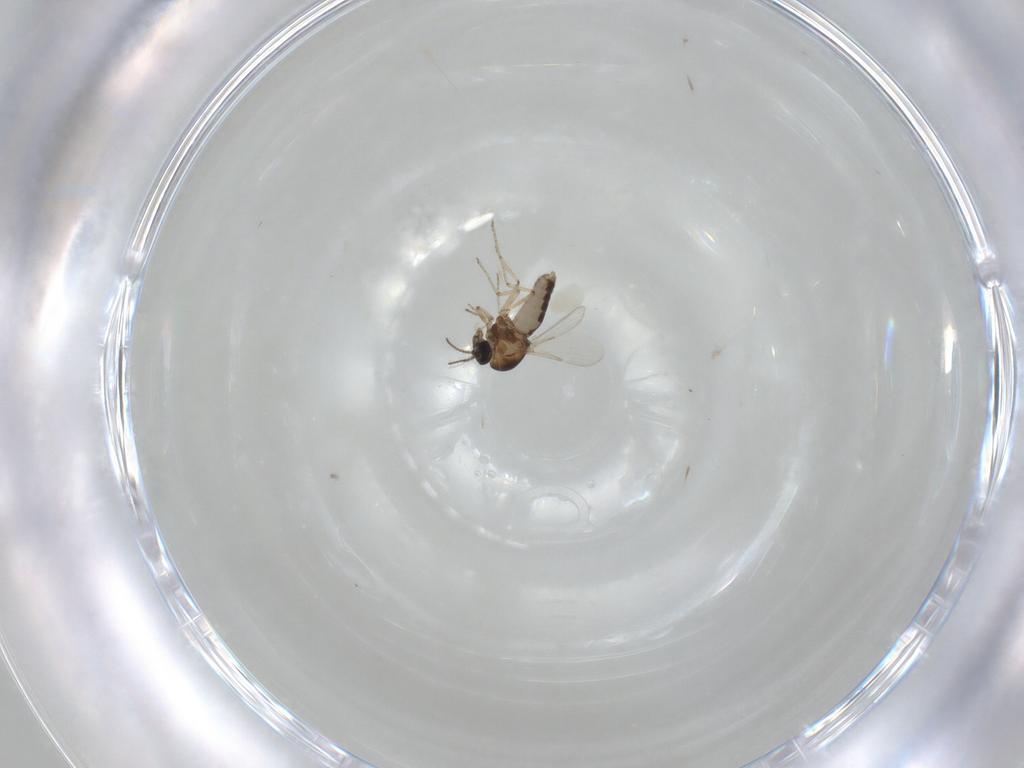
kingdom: Animalia
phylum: Arthropoda
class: Insecta
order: Diptera
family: Ceratopogonidae
